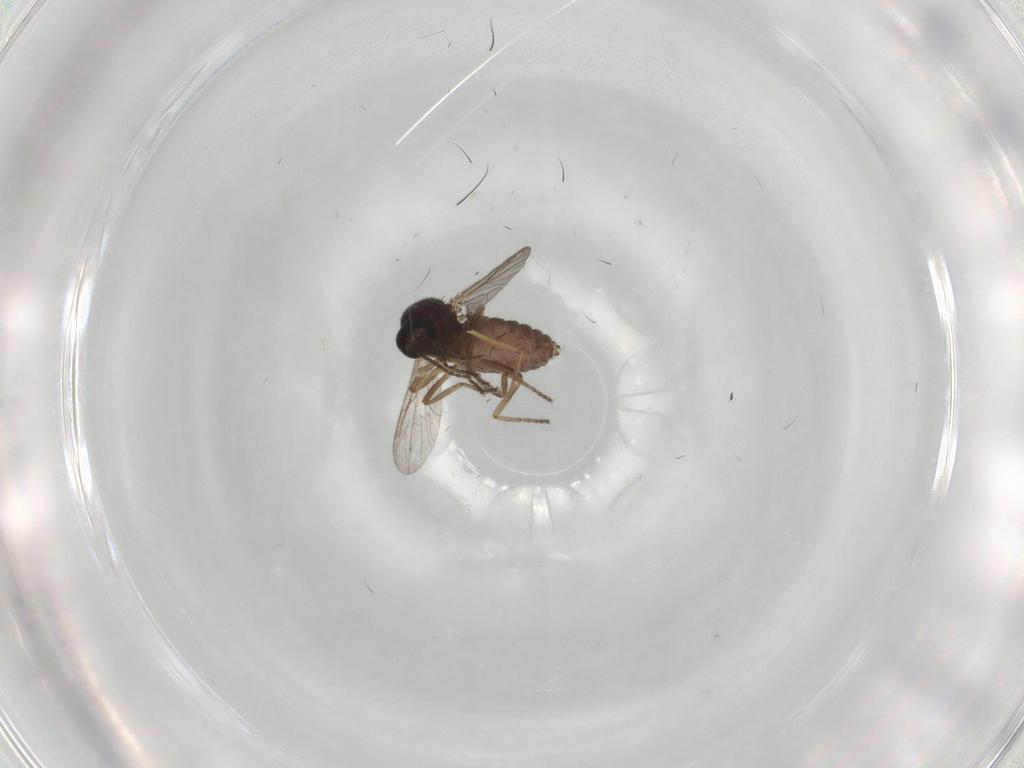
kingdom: Animalia
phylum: Arthropoda
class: Insecta
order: Diptera
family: Ceratopogonidae
